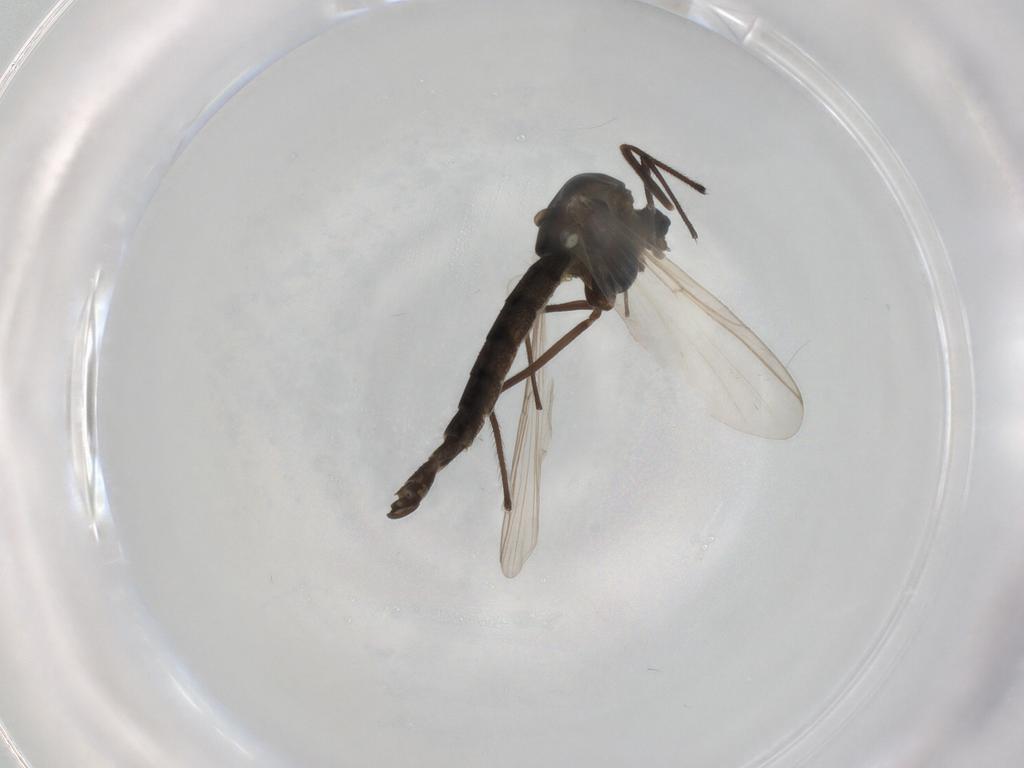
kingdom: Animalia
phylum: Arthropoda
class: Insecta
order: Diptera
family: Chironomidae
